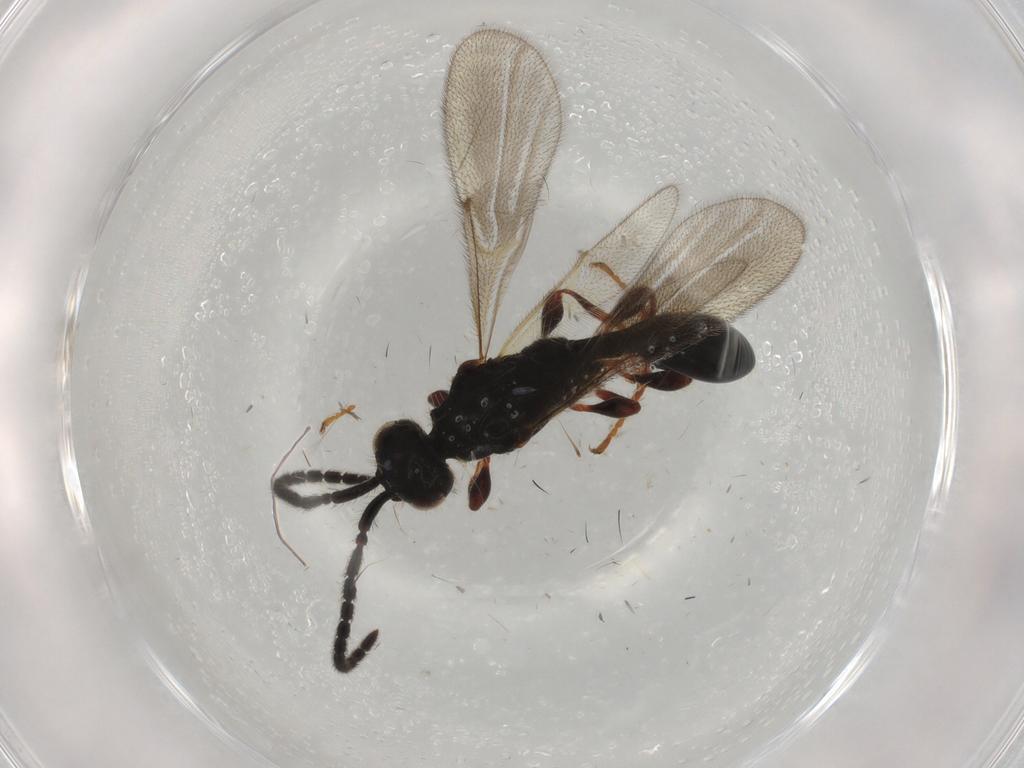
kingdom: Animalia
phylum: Arthropoda
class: Insecta
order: Hymenoptera
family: Diapriidae
